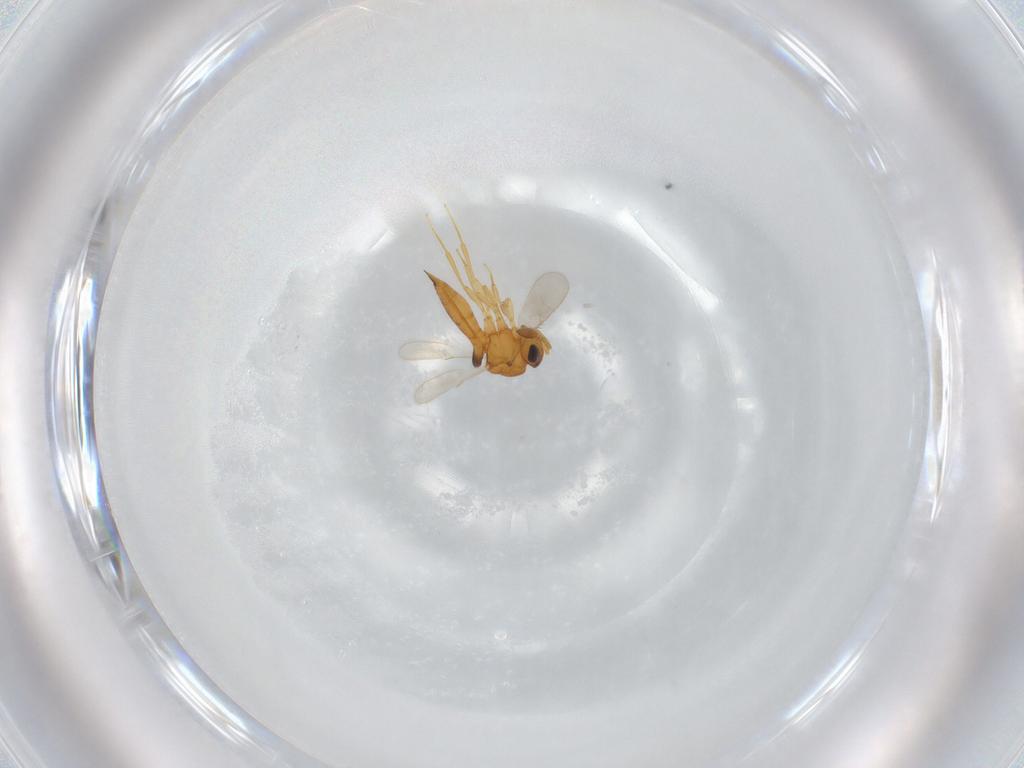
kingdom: Animalia
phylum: Arthropoda
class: Insecta
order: Hymenoptera
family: Scelionidae
